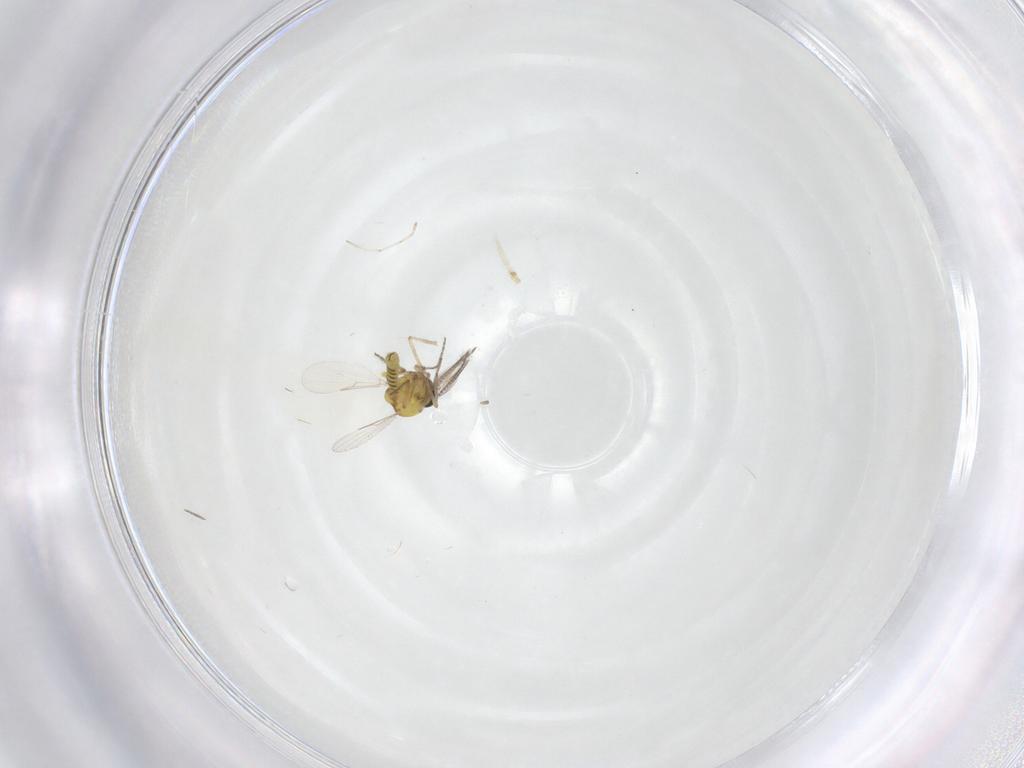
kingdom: Animalia
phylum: Arthropoda
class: Insecta
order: Diptera
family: Ceratopogonidae
